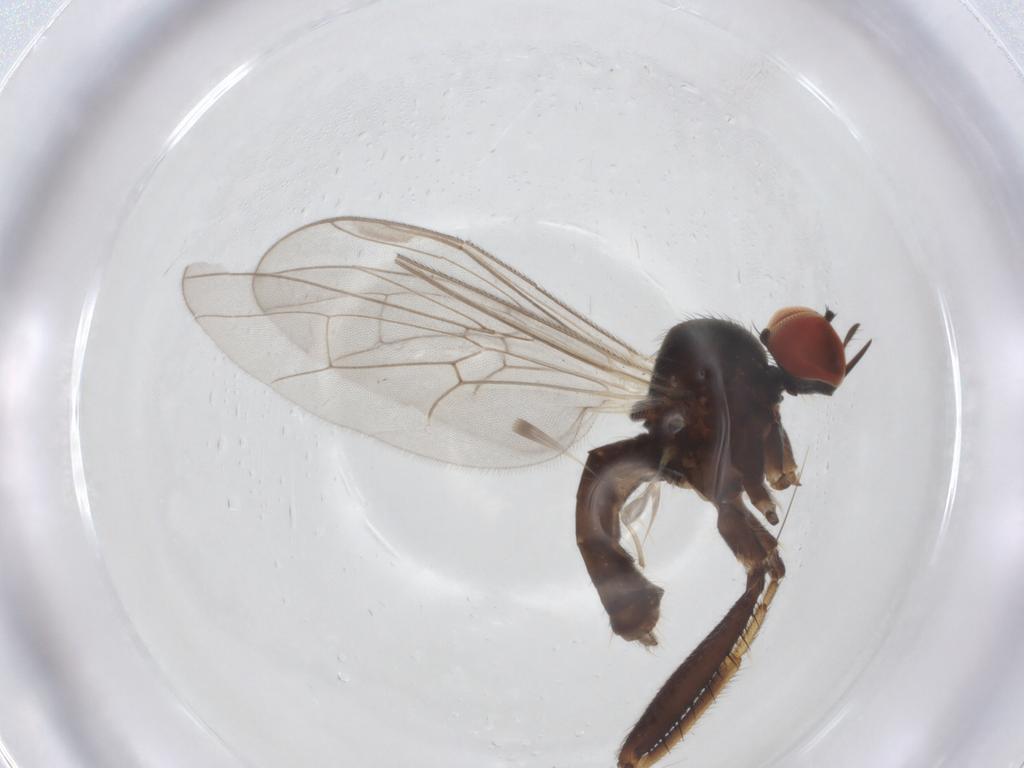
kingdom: Animalia
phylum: Arthropoda
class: Insecta
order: Diptera
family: Cecidomyiidae
